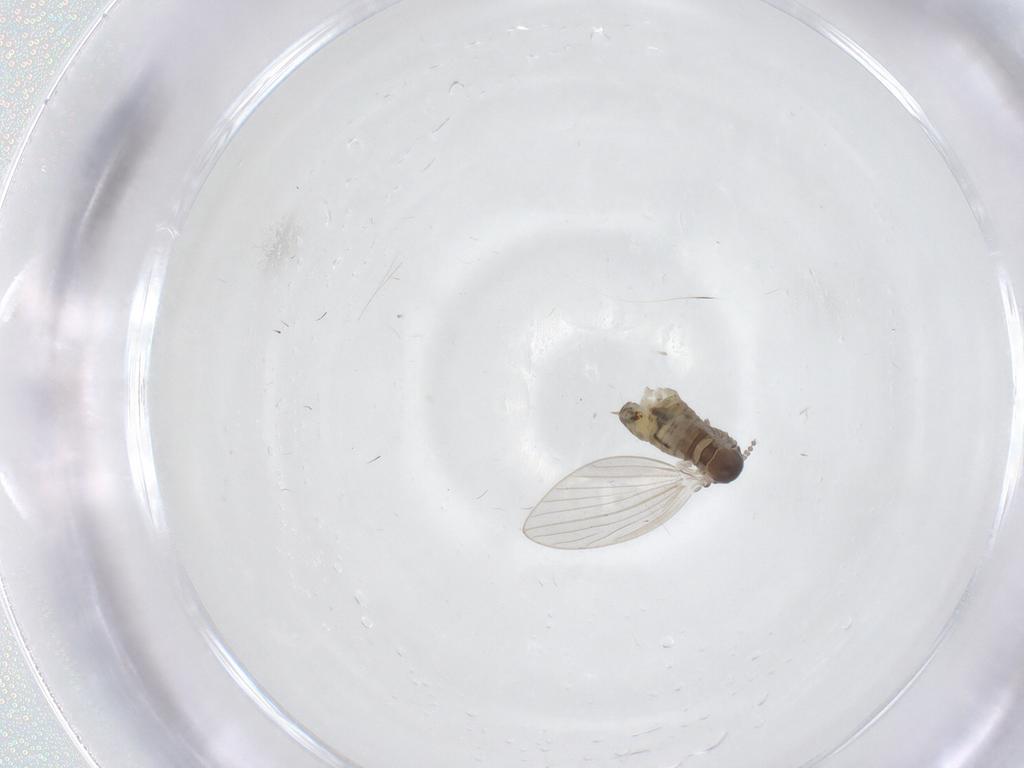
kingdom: Animalia
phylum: Arthropoda
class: Insecta
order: Diptera
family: Psychodidae
